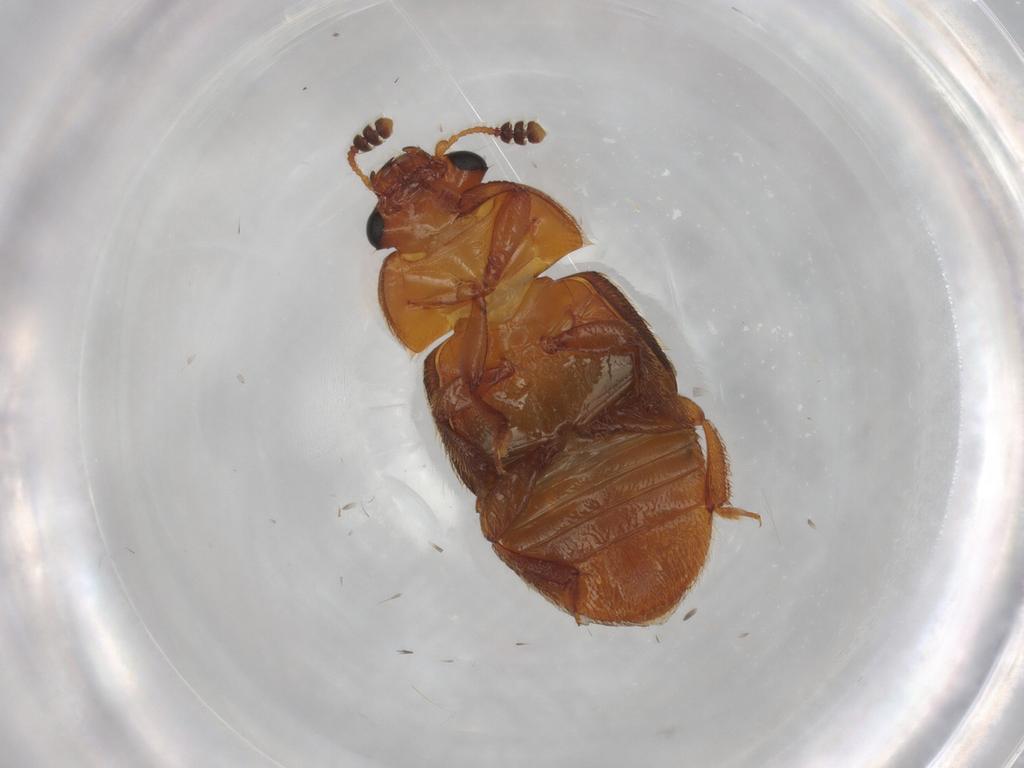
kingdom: Animalia
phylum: Arthropoda
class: Insecta
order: Coleoptera
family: Nitidulidae
